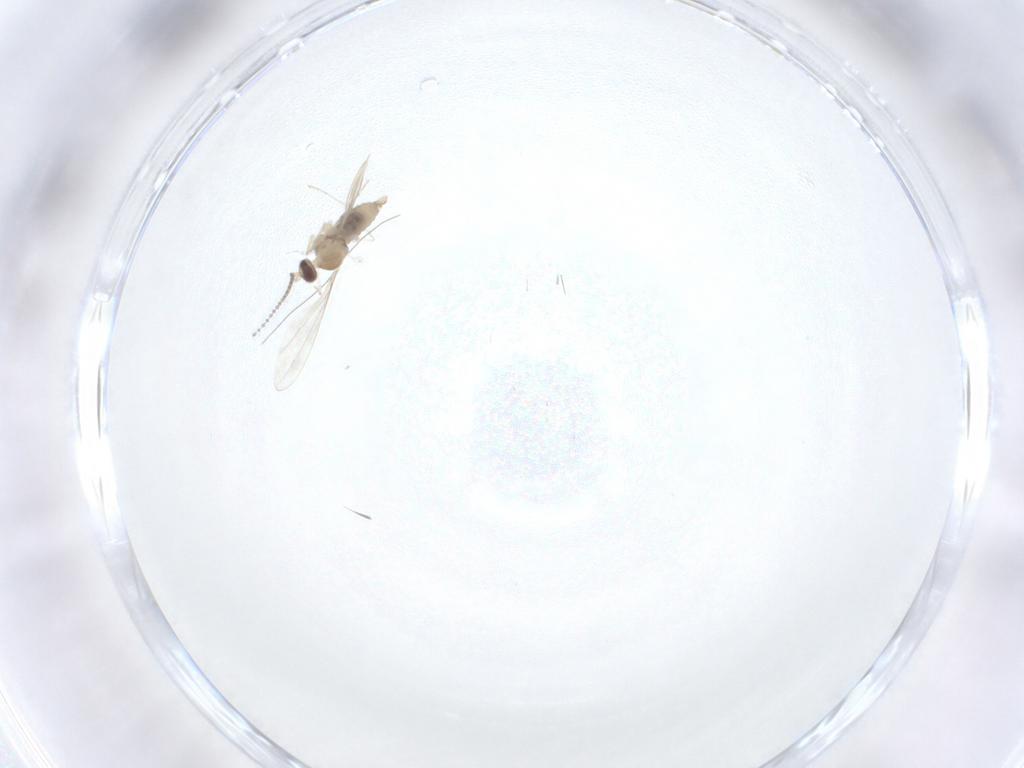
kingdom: Animalia
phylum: Arthropoda
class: Insecta
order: Diptera
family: Cecidomyiidae
